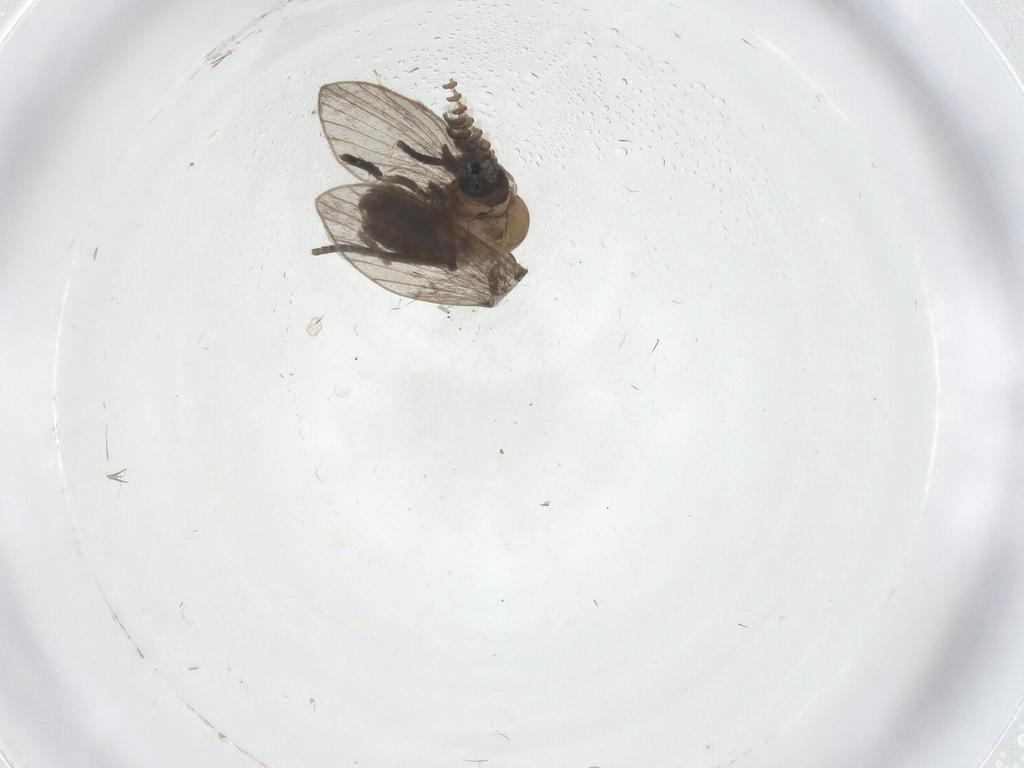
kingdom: Animalia
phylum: Arthropoda
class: Insecta
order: Diptera
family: Psychodidae
